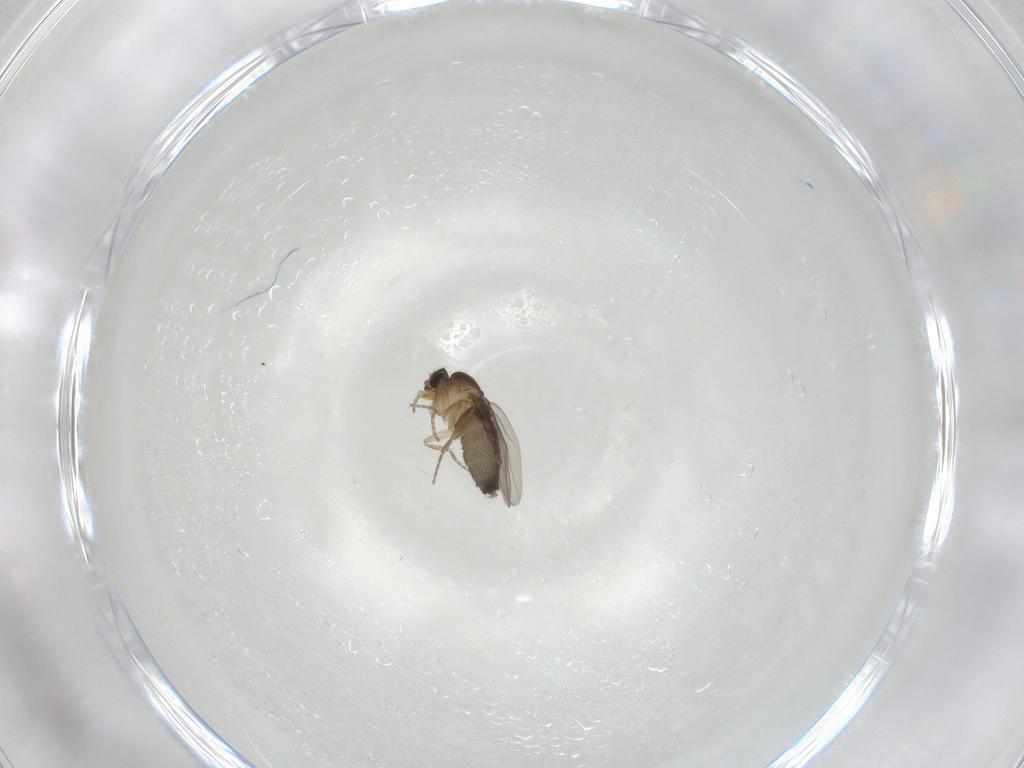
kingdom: Animalia
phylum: Arthropoda
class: Insecta
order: Diptera
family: Phoridae
